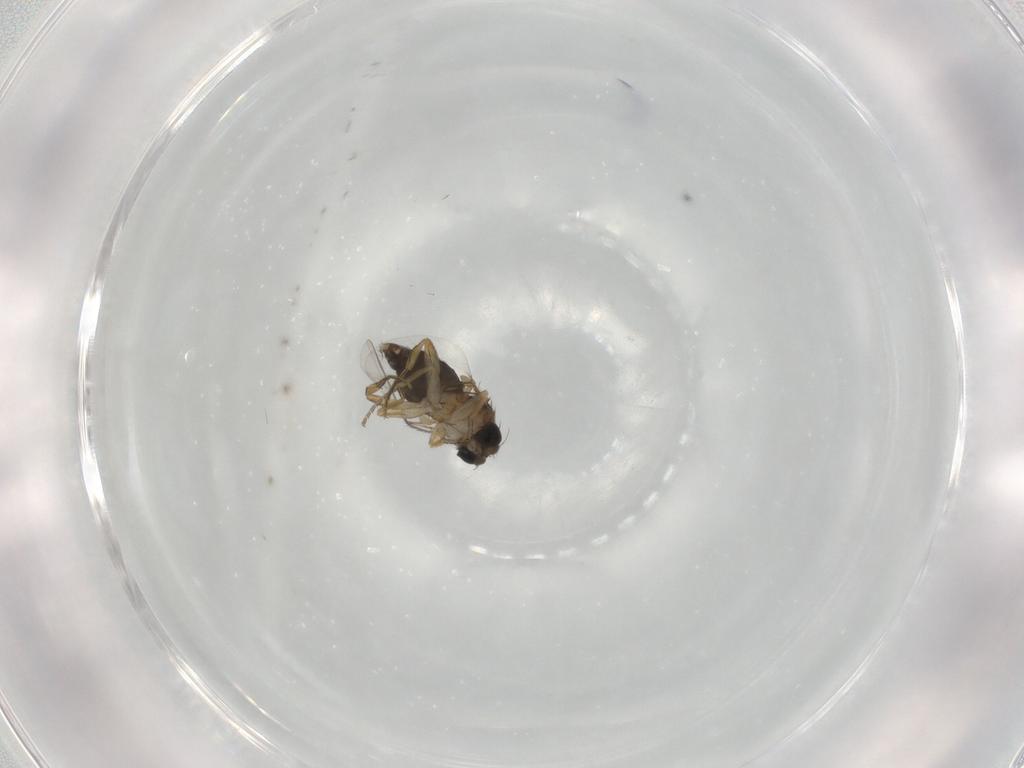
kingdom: Animalia
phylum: Arthropoda
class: Insecta
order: Diptera
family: Phoridae
